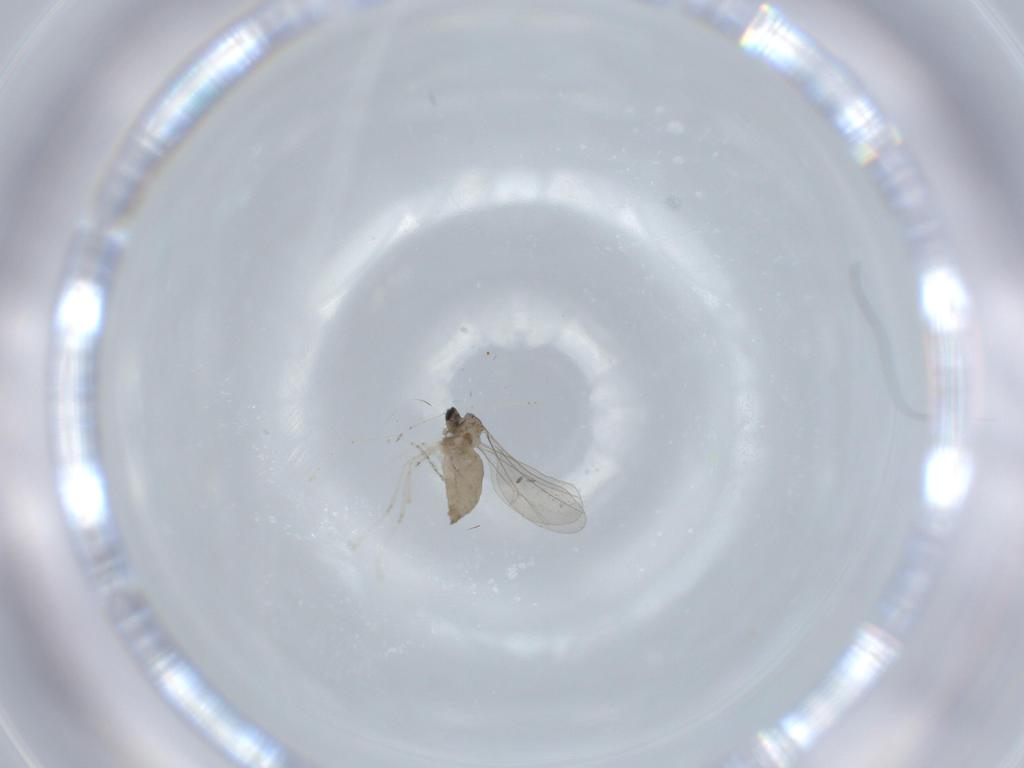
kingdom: Animalia
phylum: Arthropoda
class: Insecta
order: Diptera
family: Cecidomyiidae
